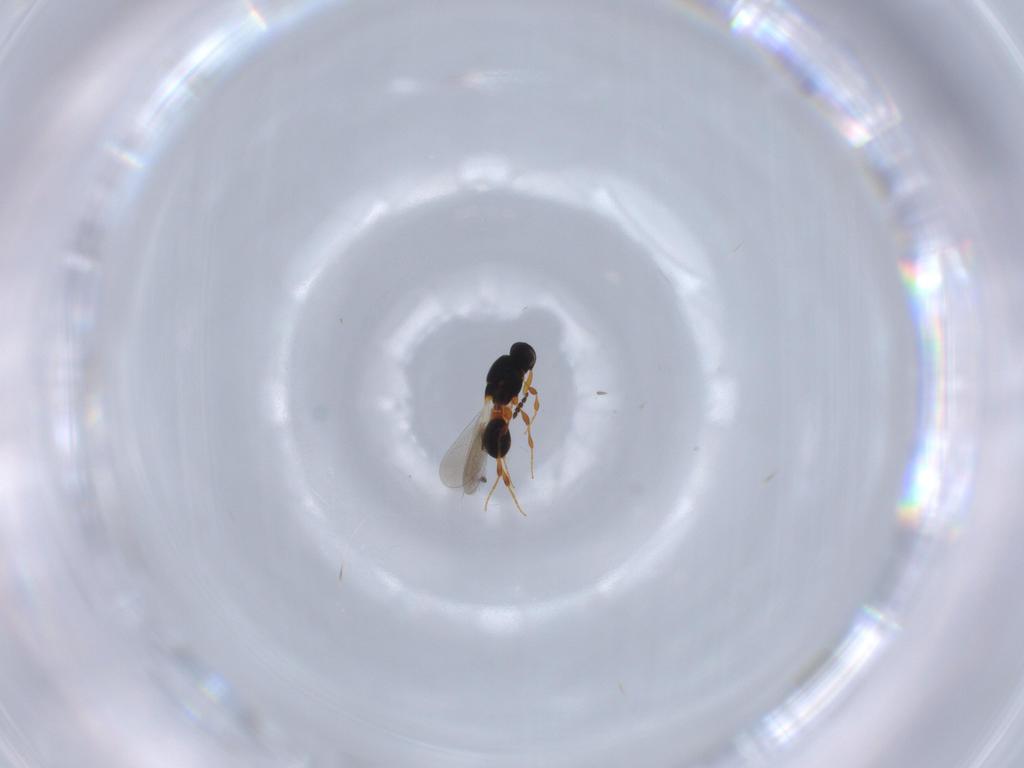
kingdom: Animalia
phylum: Arthropoda
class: Insecta
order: Hymenoptera
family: Platygastridae
